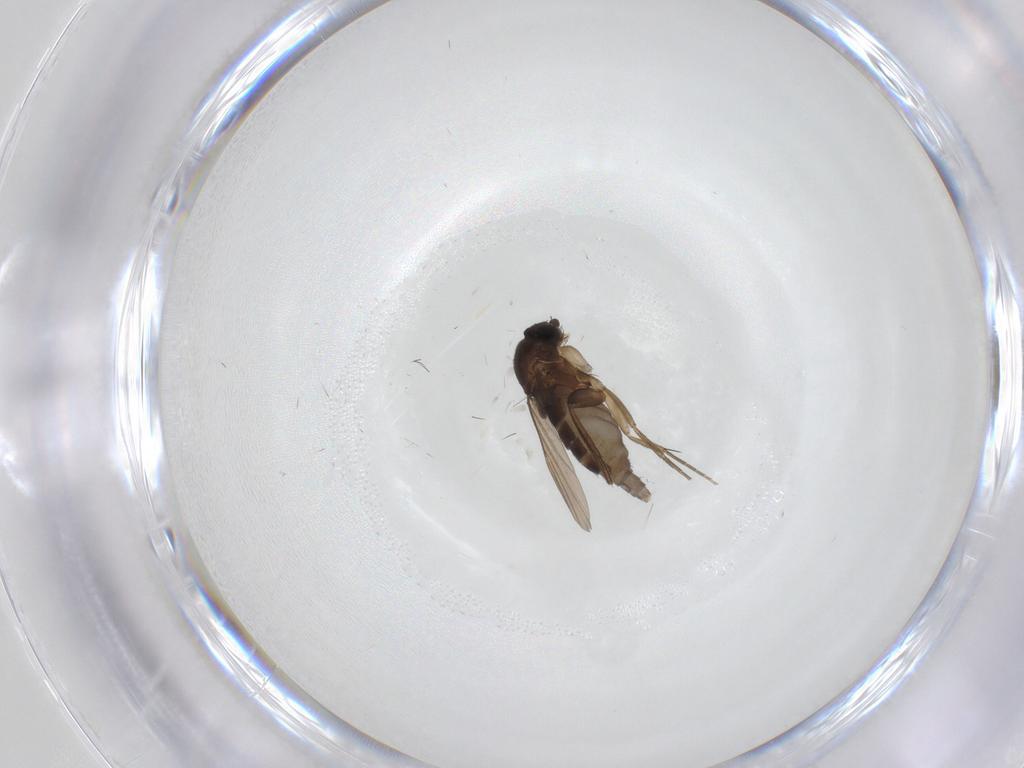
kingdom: Animalia
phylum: Arthropoda
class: Insecta
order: Diptera
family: Phoridae
